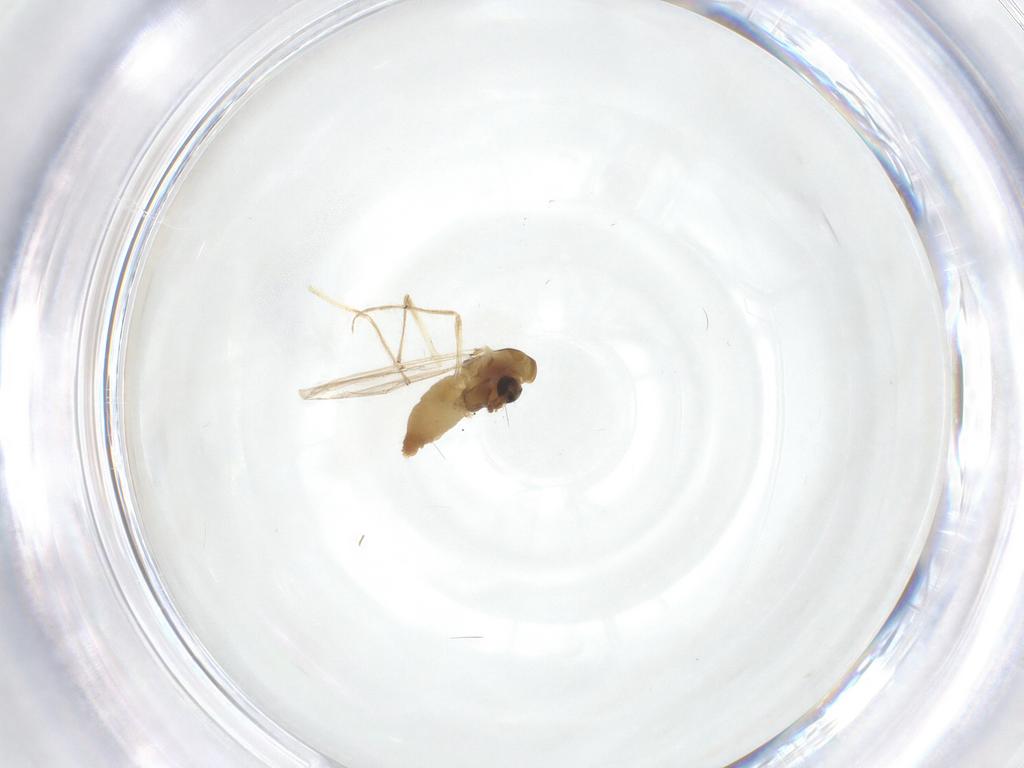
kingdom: Animalia
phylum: Arthropoda
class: Insecta
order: Diptera
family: Chironomidae
